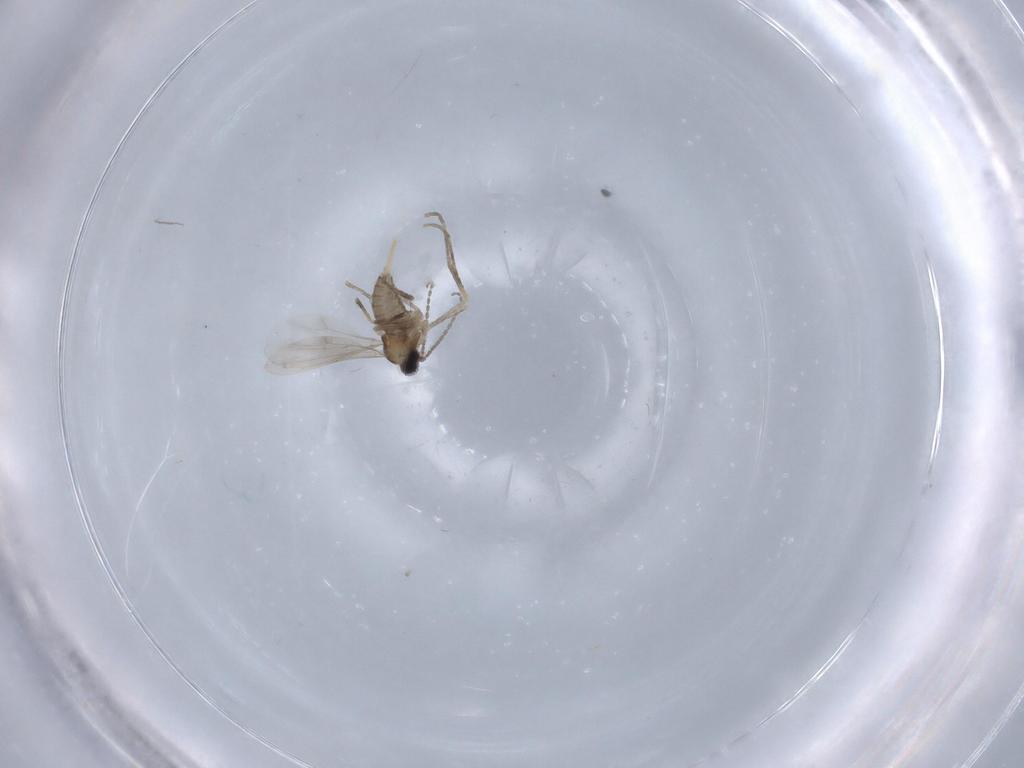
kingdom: Animalia
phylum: Arthropoda
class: Insecta
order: Diptera
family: Cecidomyiidae
